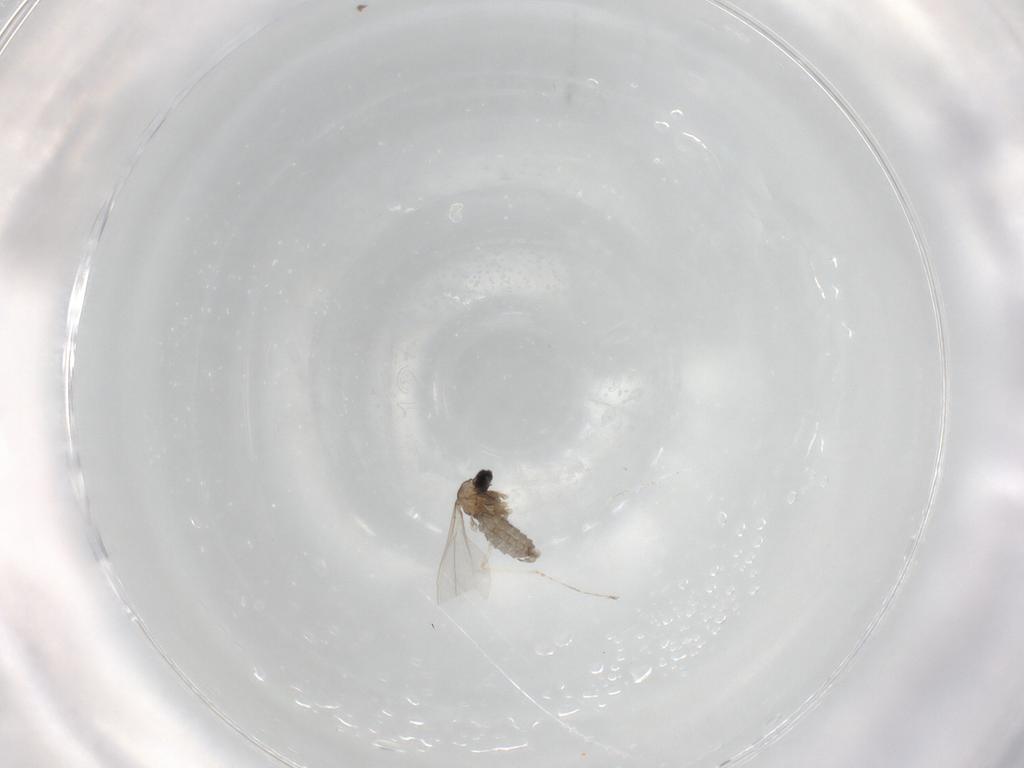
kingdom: Animalia
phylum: Arthropoda
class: Insecta
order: Diptera
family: Cecidomyiidae
